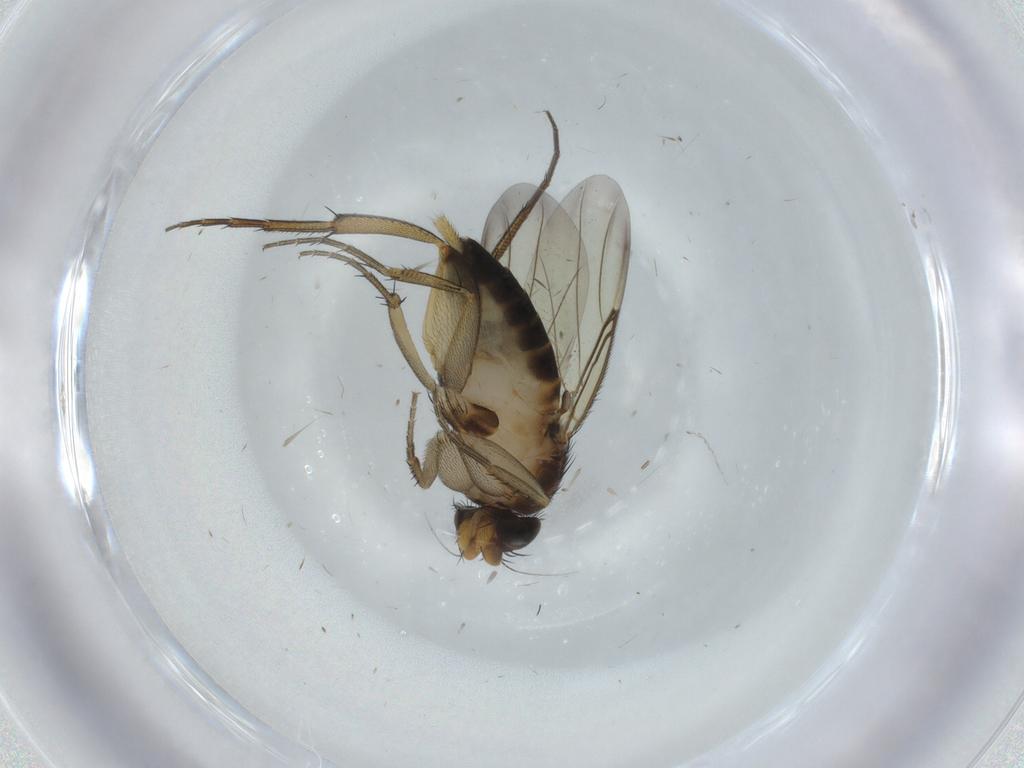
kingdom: Animalia
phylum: Arthropoda
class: Insecta
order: Diptera
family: Phoridae
